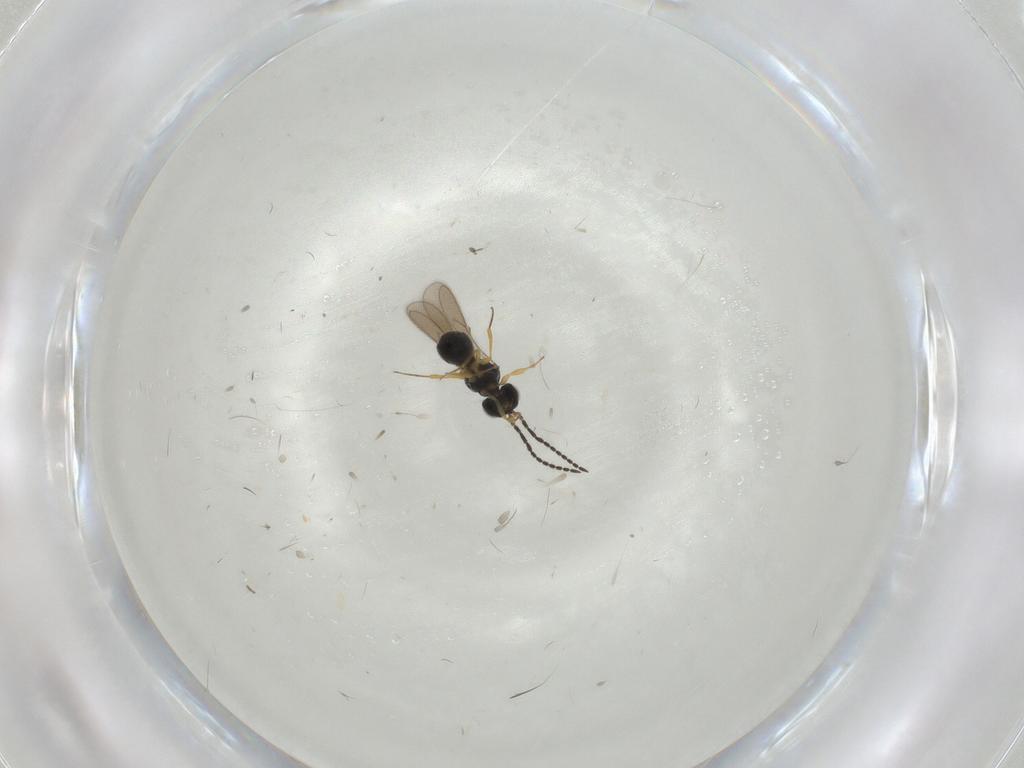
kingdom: Animalia
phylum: Arthropoda
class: Insecta
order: Hymenoptera
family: Scelionidae
